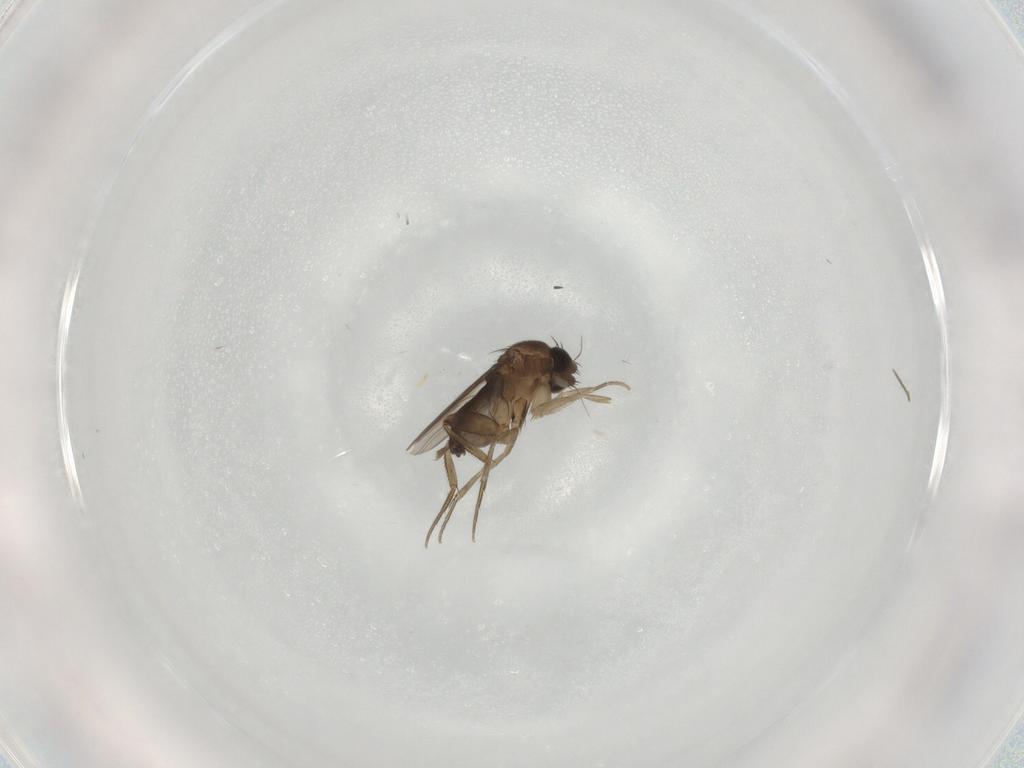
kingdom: Animalia
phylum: Arthropoda
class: Insecta
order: Diptera
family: Phoridae
